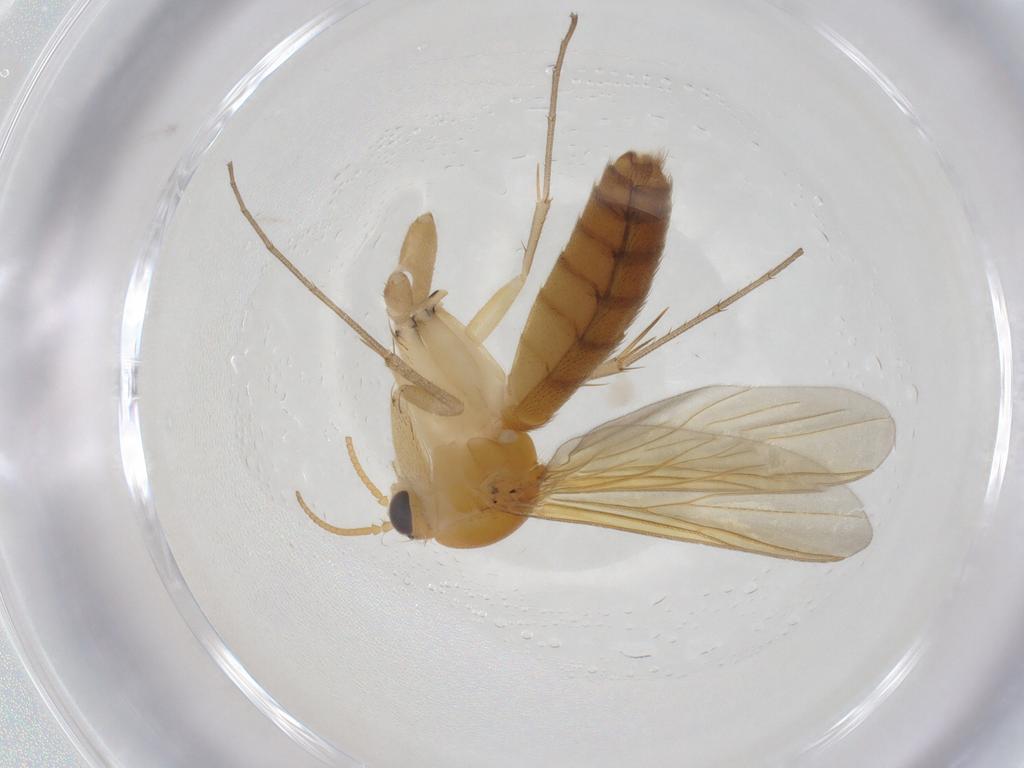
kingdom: Animalia
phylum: Arthropoda
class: Insecta
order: Diptera
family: Mycetophilidae
